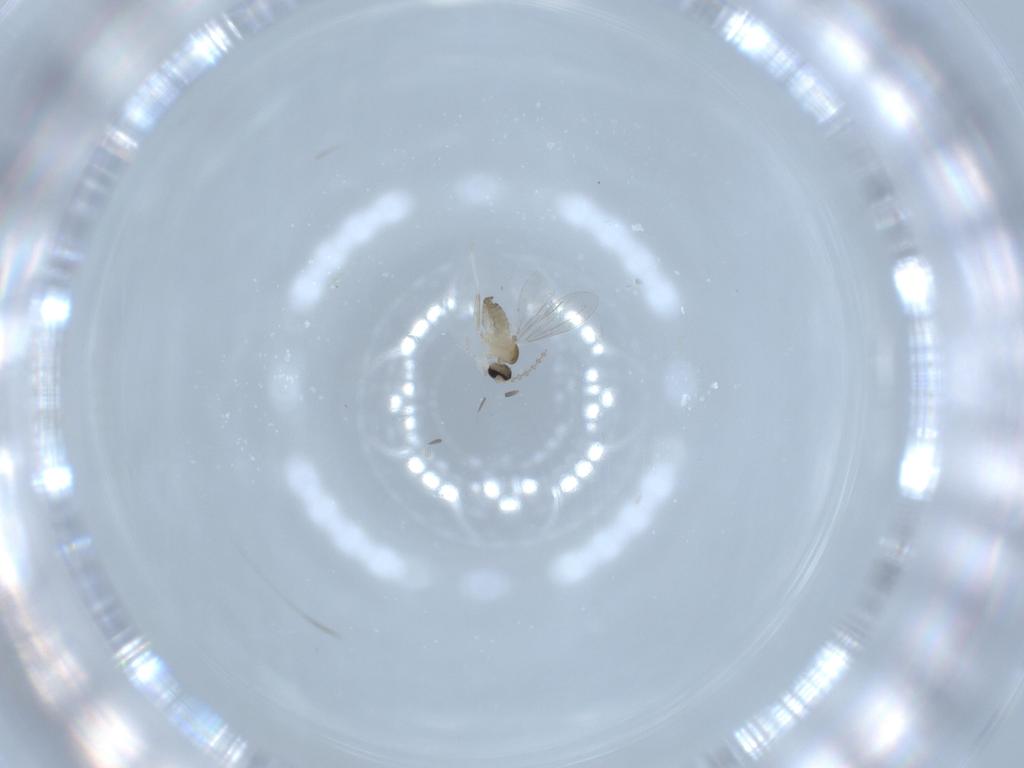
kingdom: Animalia
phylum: Arthropoda
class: Insecta
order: Diptera
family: Cecidomyiidae
